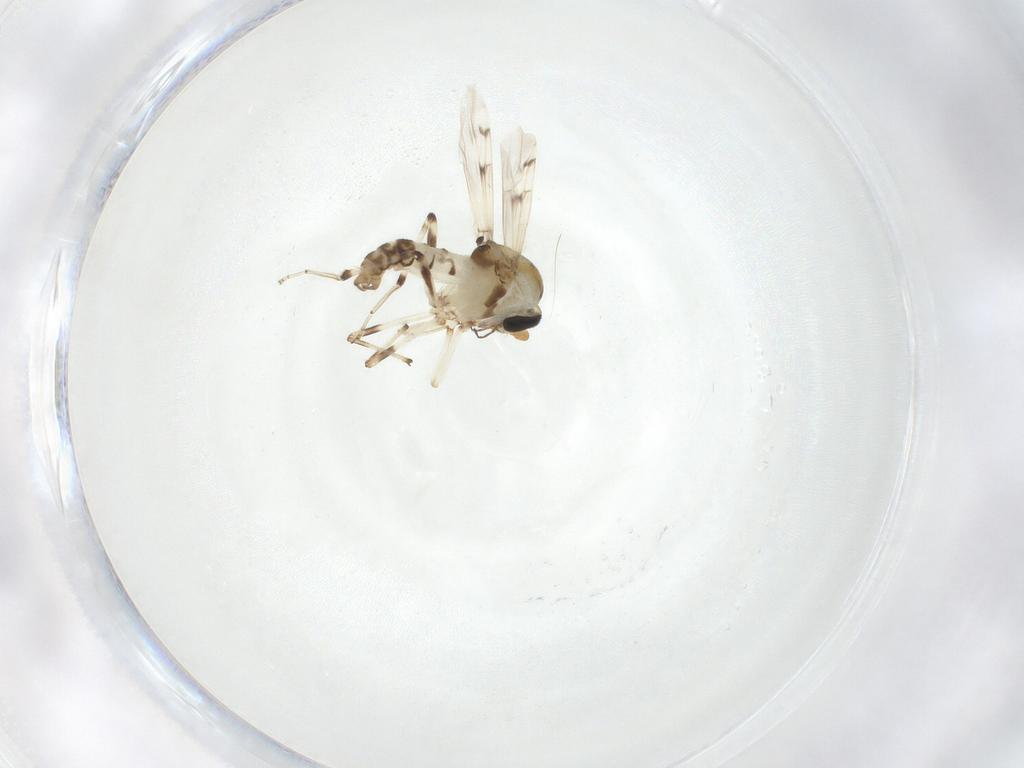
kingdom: Animalia
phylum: Arthropoda
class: Insecta
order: Diptera
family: Ceratopogonidae
